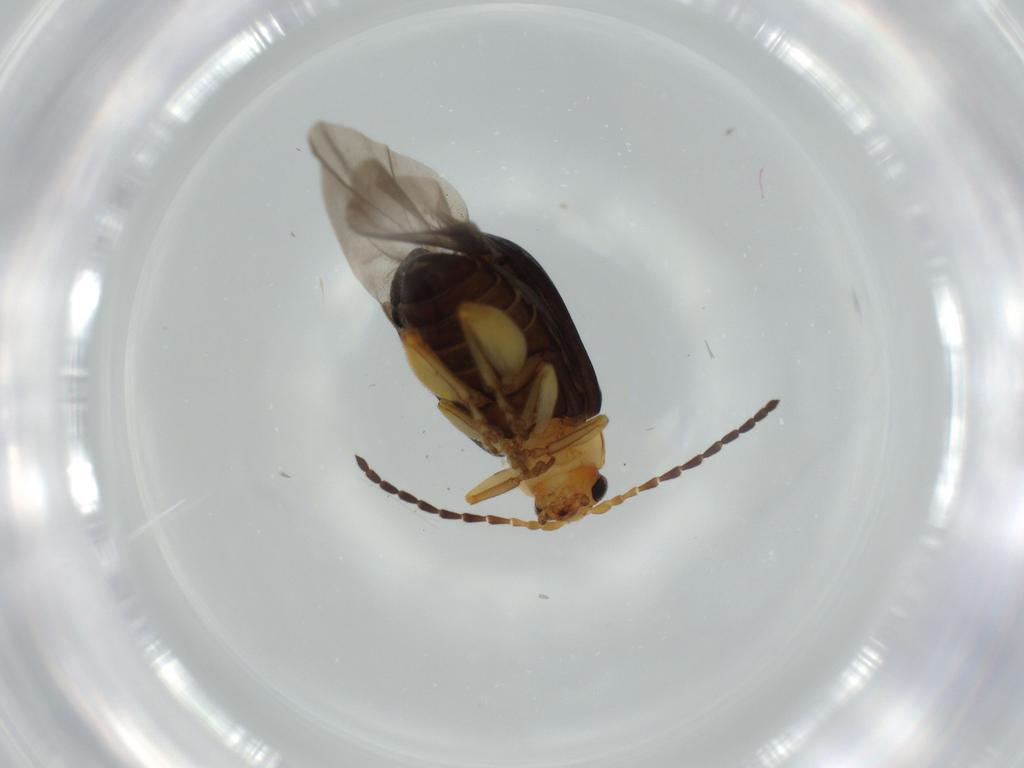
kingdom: Animalia
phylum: Arthropoda
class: Insecta
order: Coleoptera
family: Chrysomelidae
